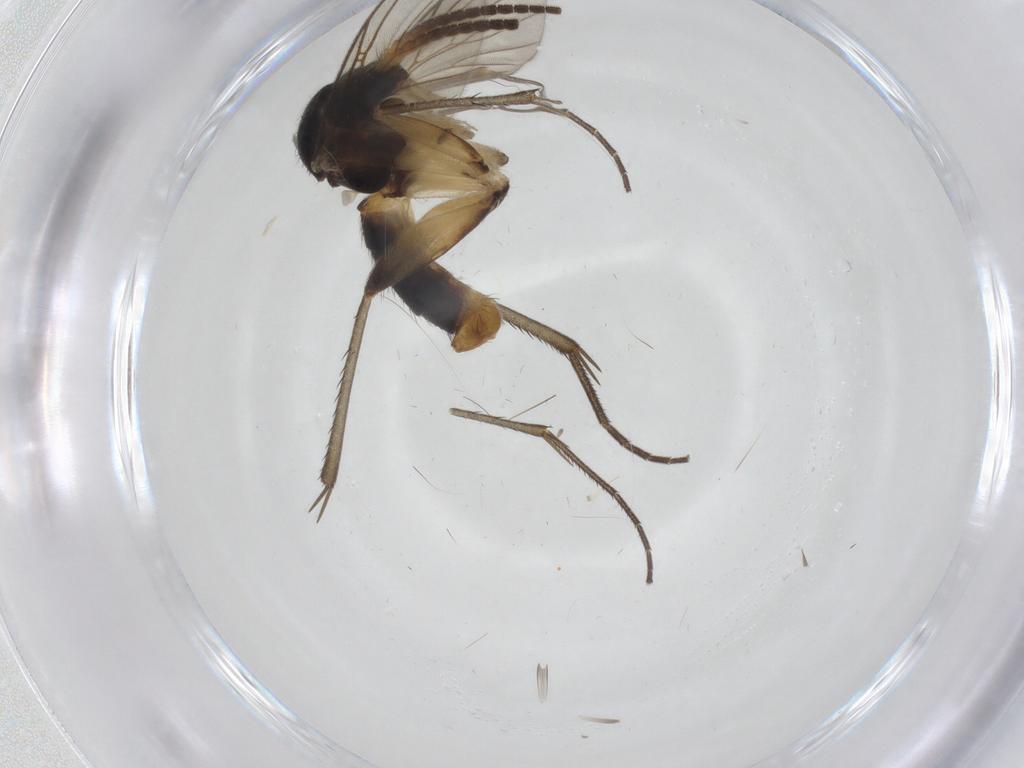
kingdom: Animalia
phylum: Arthropoda
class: Insecta
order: Diptera
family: Mycetophilidae
